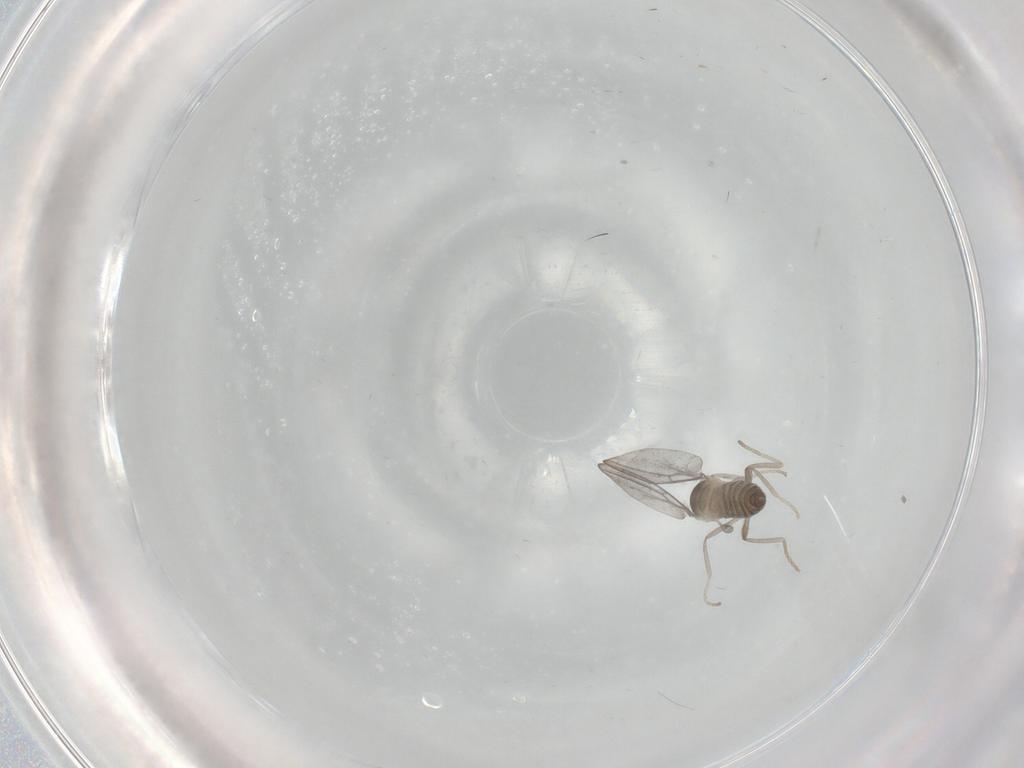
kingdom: Animalia
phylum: Arthropoda
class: Insecta
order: Diptera
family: Cecidomyiidae
